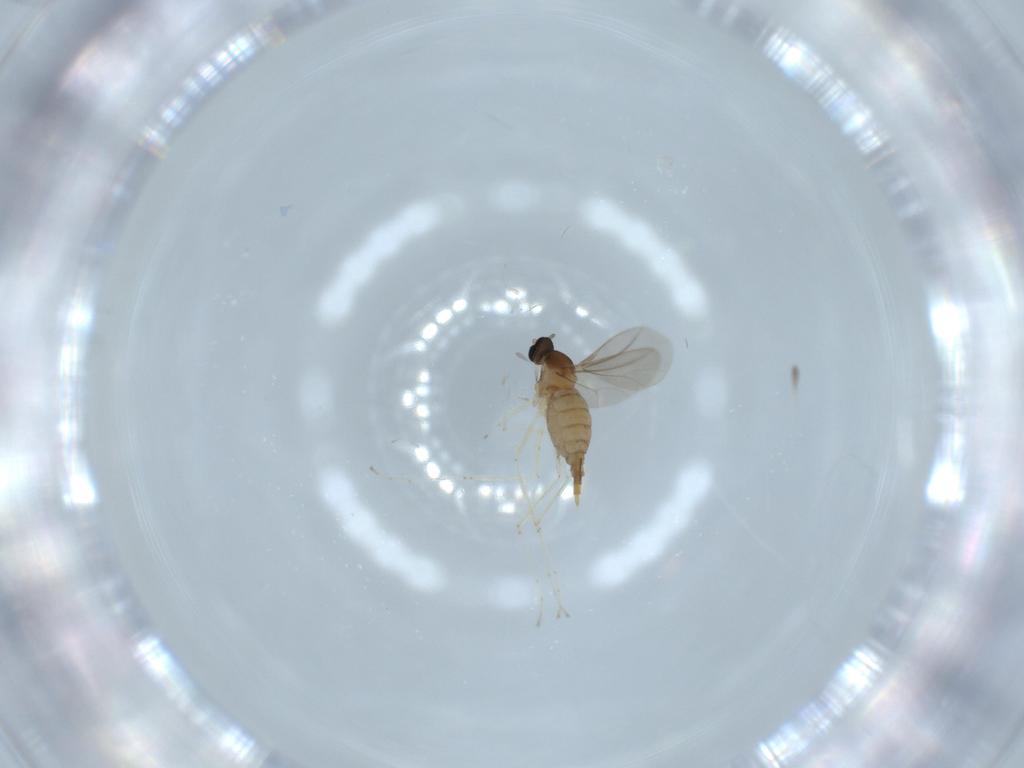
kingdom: Animalia
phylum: Arthropoda
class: Insecta
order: Diptera
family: Cecidomyiidae
